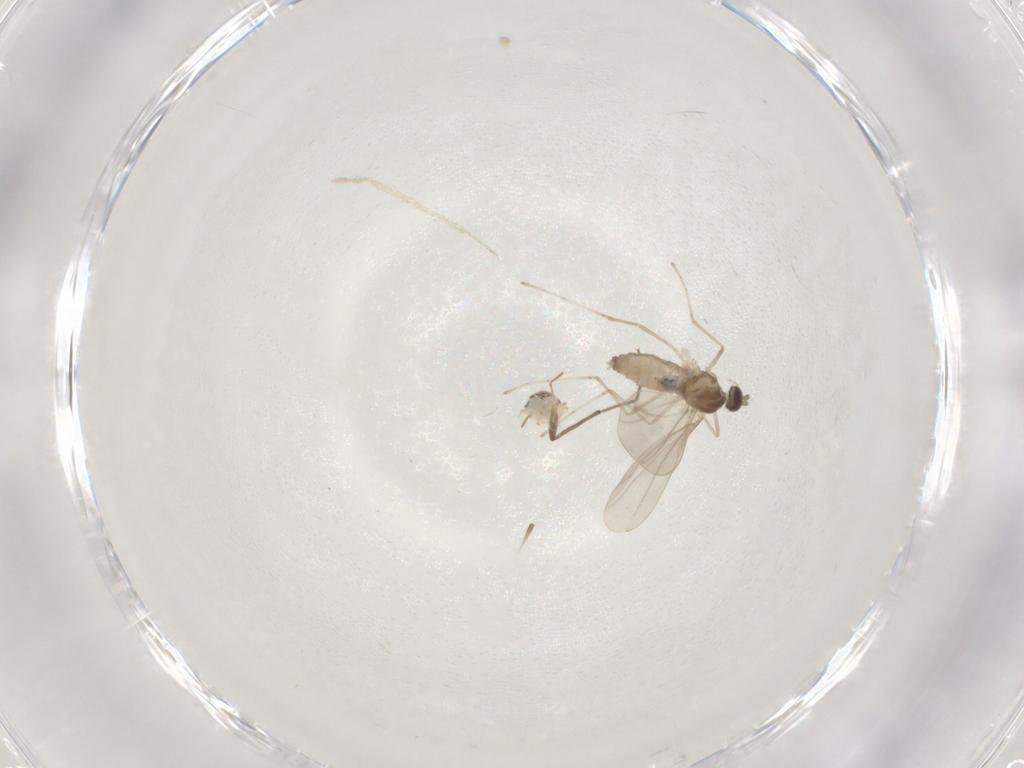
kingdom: Animalia
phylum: Arthropoda
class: Insecta
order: Diptera
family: Cecidomyiidae
